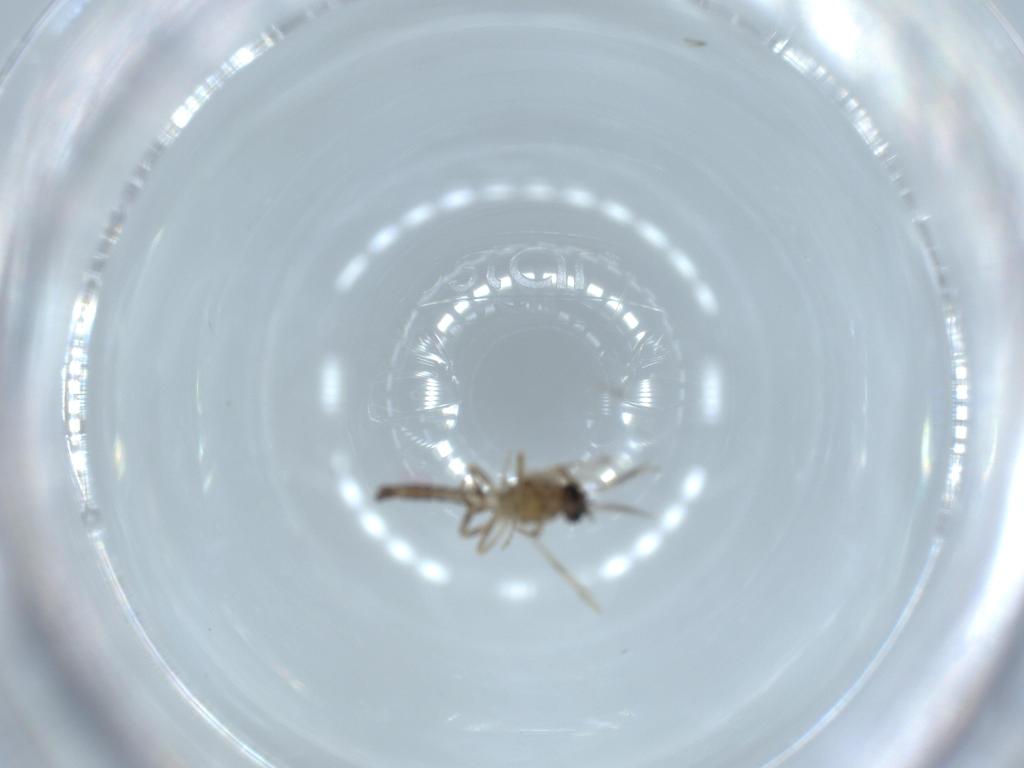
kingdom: Animalia
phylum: Arthropoda
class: Insecta
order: Diptera
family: Ceratopogonidae
